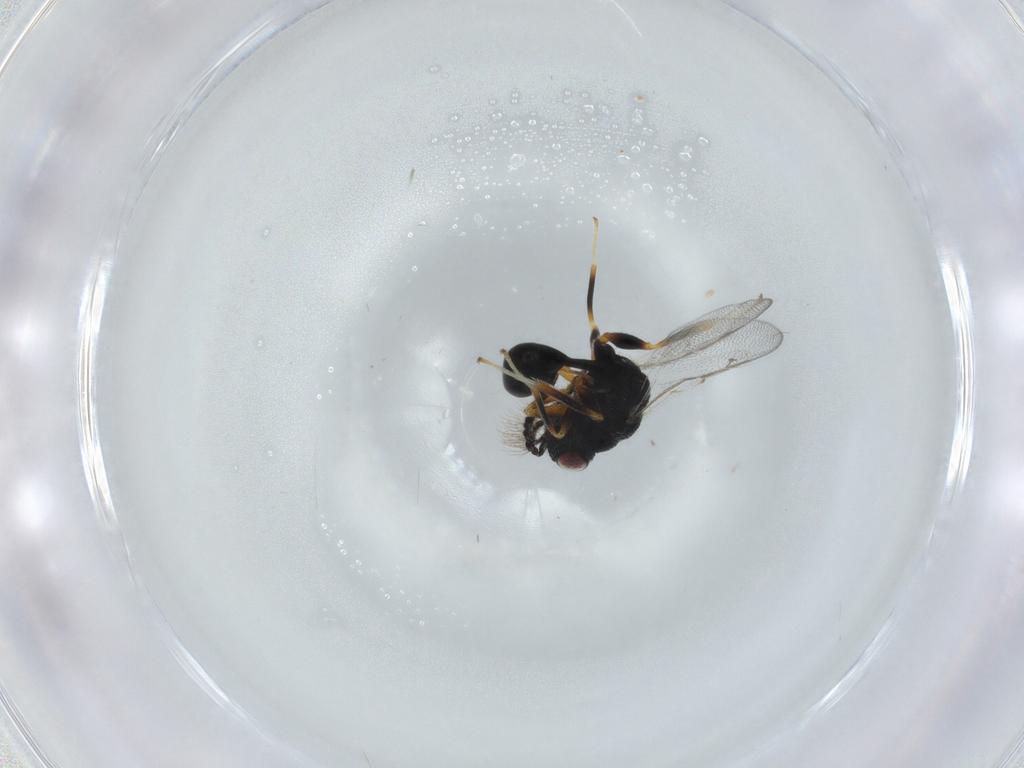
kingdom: Animalia
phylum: Arthropoda
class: Insecta
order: Hymenoptera
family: Eurytomidae
